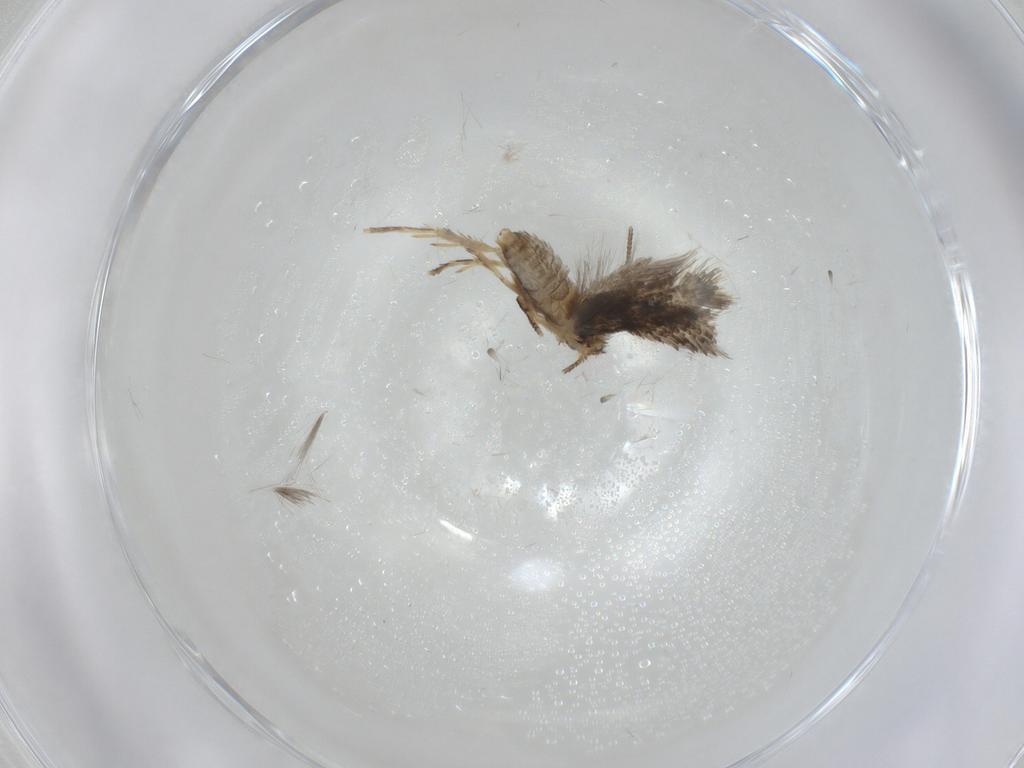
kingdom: Animalia
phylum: Arthropoda
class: Insecta
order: Lepidoptera
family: Nepticulidae
